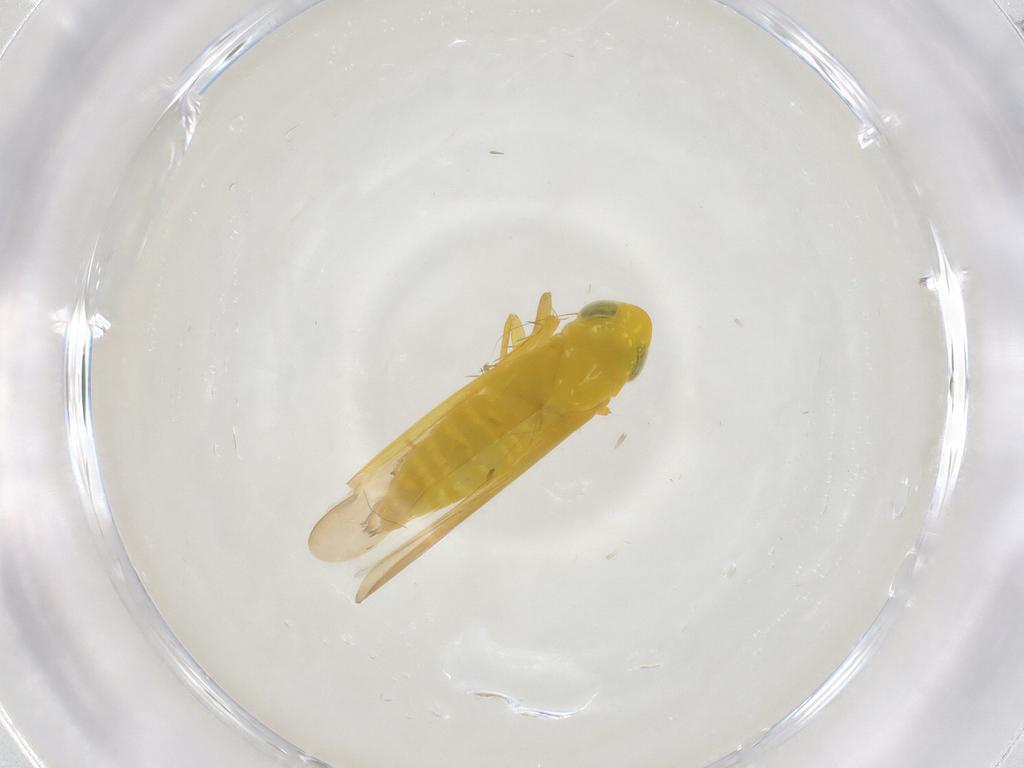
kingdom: Animalia
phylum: Arthropoda
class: Insecta
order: Hemiptera
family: Cicadellidae
